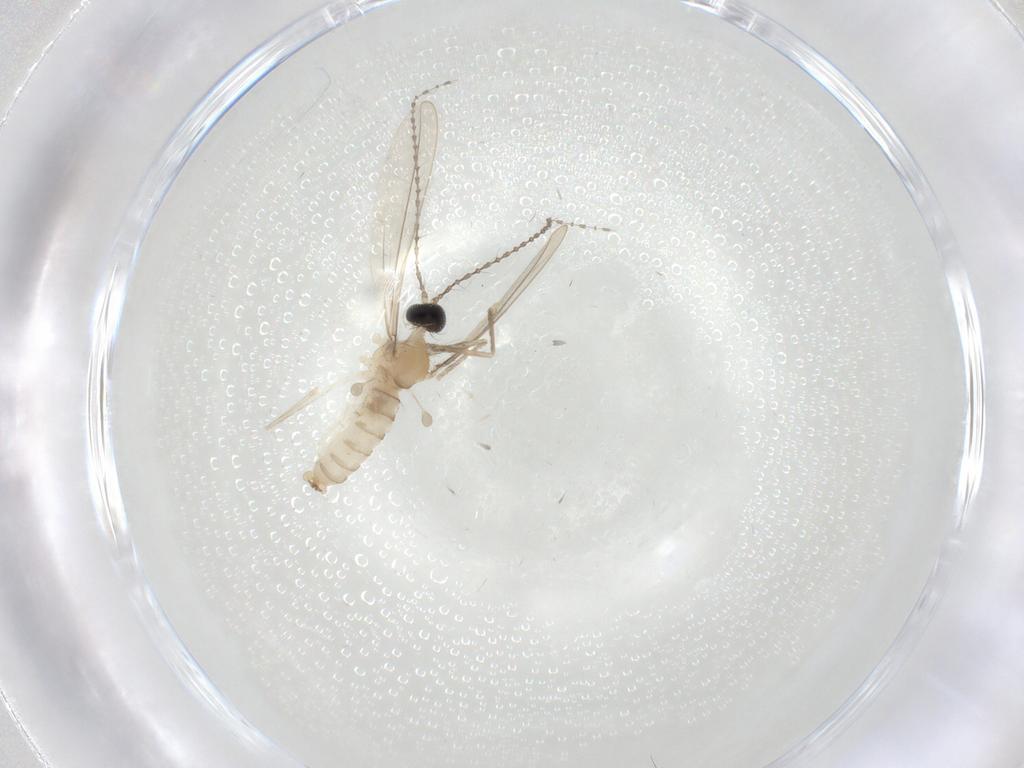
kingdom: Animalia
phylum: Arthropoda
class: Insecta
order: Diptera
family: Cecidomyiidae
